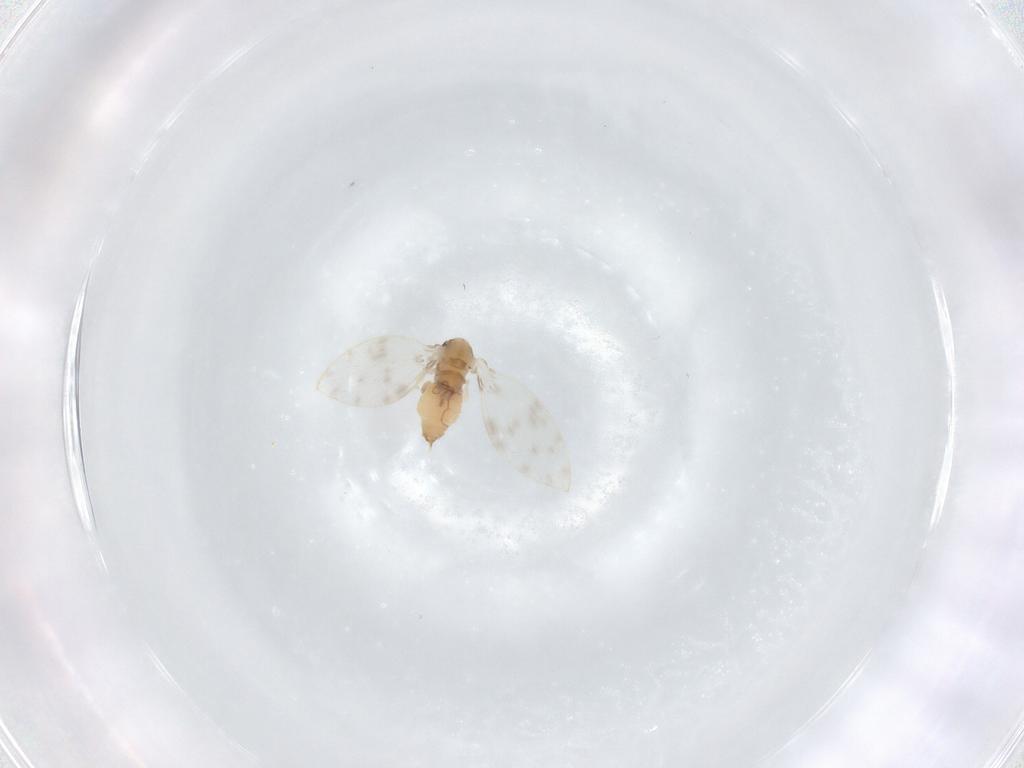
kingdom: Animalia
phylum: Arthropoda
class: Insecta
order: Diptera
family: Psychodidae
